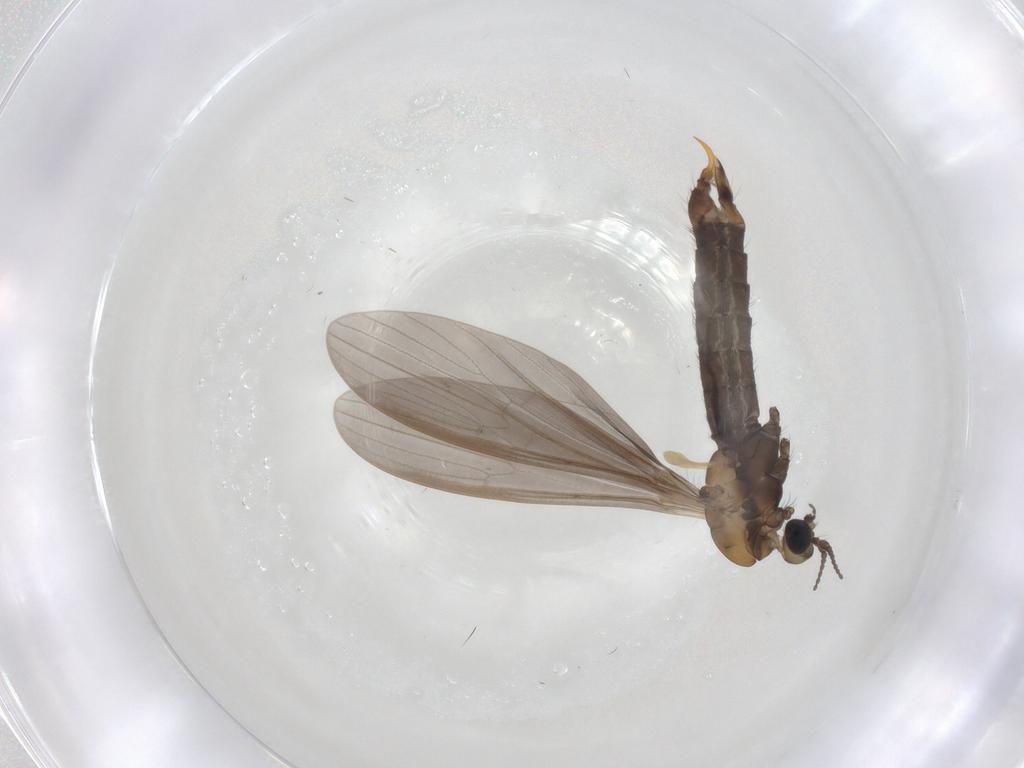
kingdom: Animalia
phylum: Arthropoda
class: Insecta
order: Diptera
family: Limoniidae
